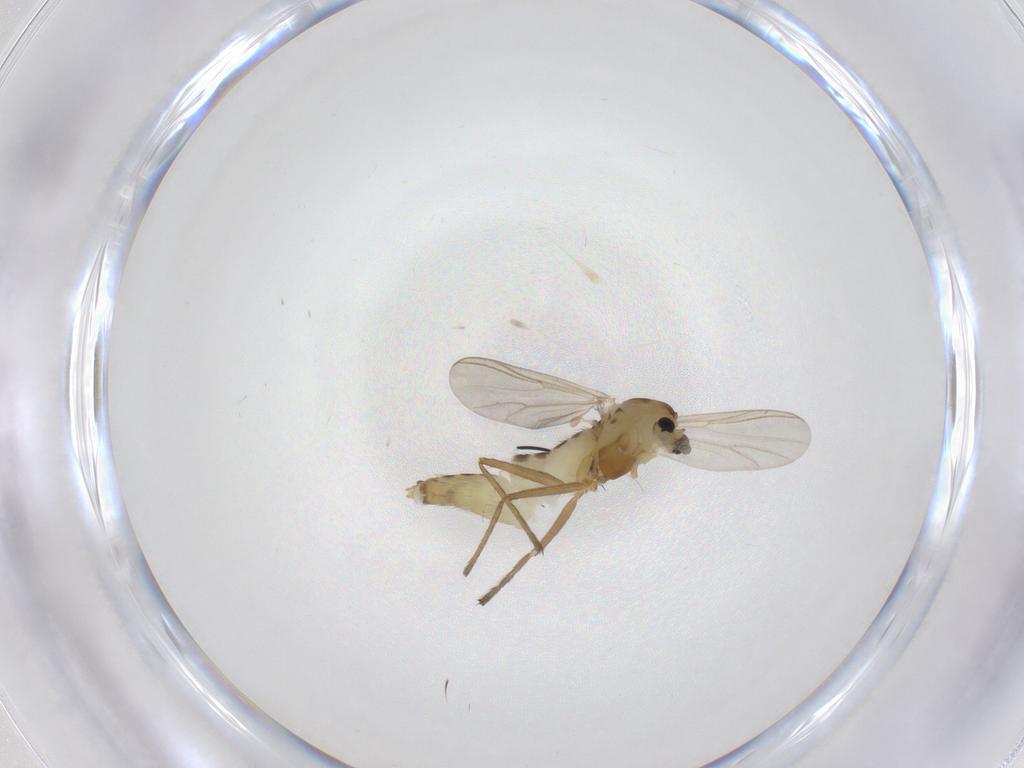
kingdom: Animalia
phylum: Arthropoda
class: Insecta
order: Diptera
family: Chironomidae
